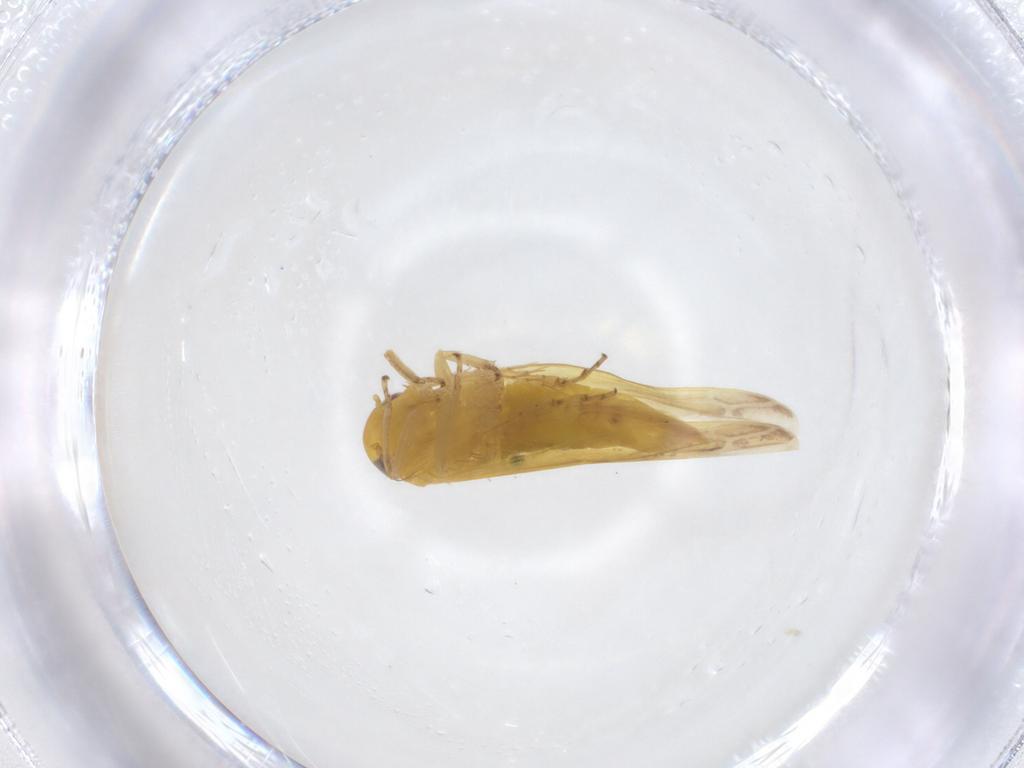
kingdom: Animalia
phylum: Arthropoda
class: Insecta
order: Hemiptera
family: Cicadellidae
